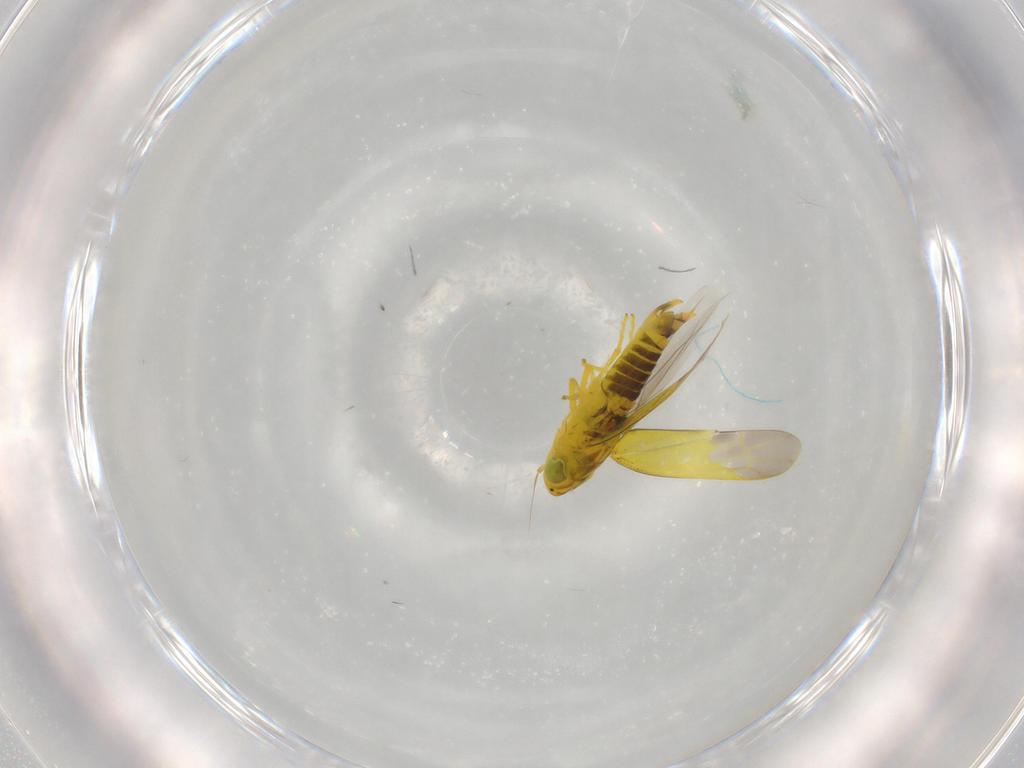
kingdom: Animalia
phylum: Arthropoda
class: Insecta
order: Hemiptera
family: Cicadellidae
